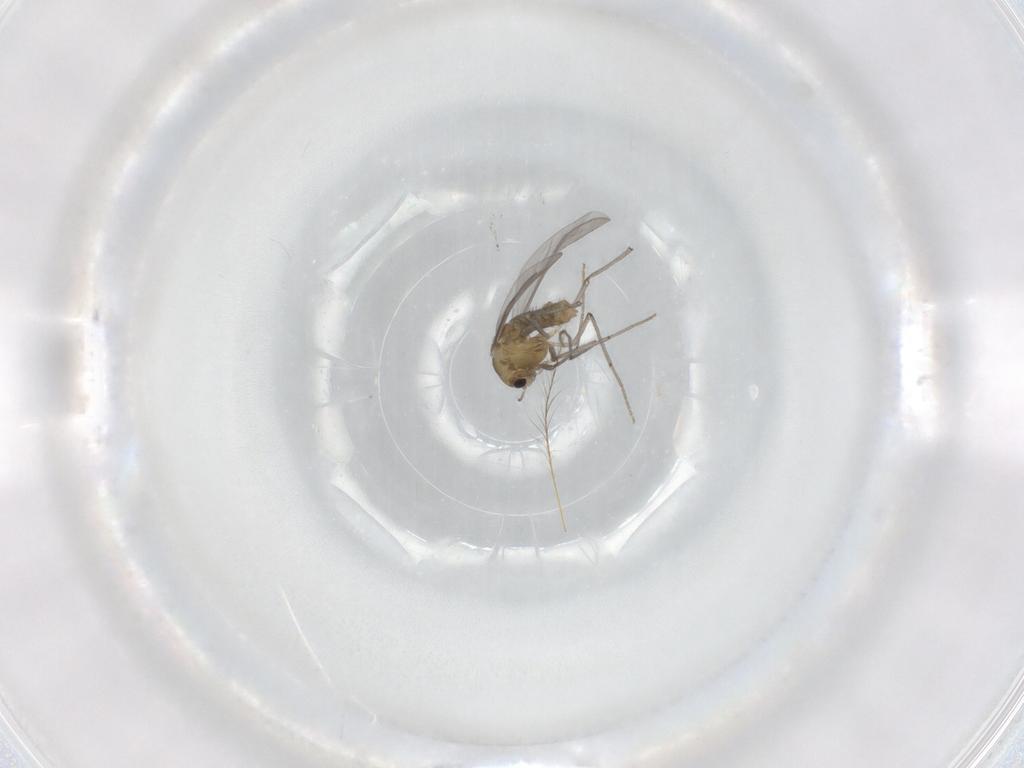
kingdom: Animalia
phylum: Arthropoda
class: Insecta
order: Diptera
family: Chironomidae
